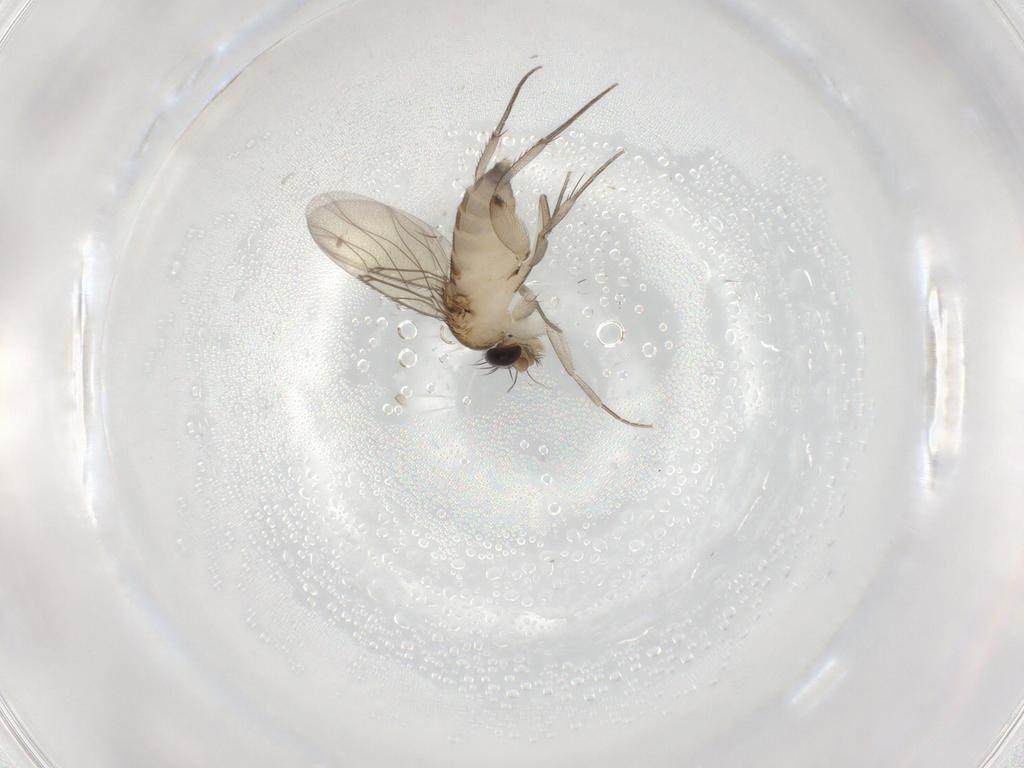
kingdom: Animalia
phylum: Arthropoda
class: Insecta
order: Diptera
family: Phoridae
